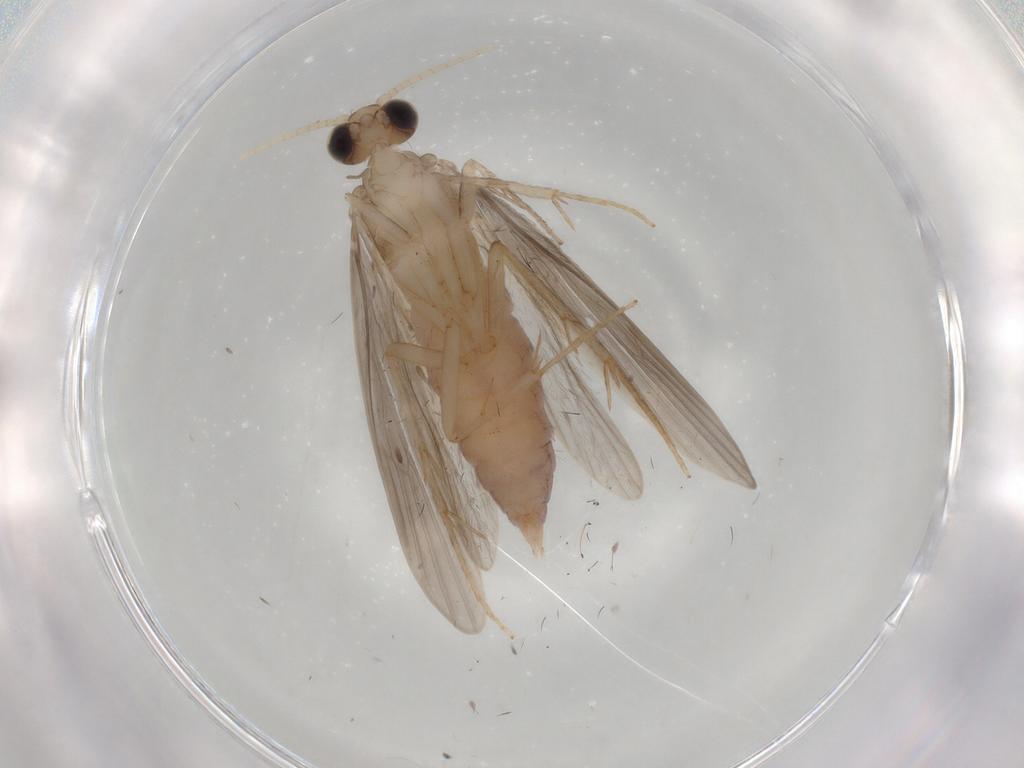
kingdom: Animalia
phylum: Arthropoda
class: Insecta
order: Trichoptera
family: Polycentropodidae
